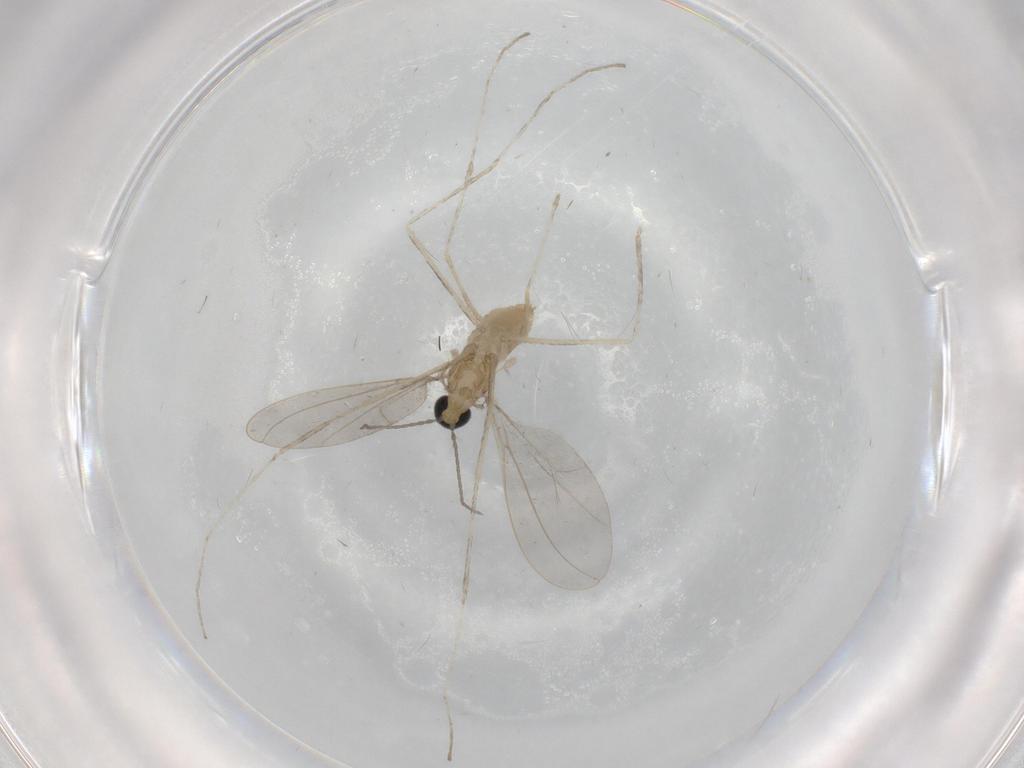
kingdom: Animalia
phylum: Arthropoda
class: Insecta
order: Diptera
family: Cecidomyiidae
